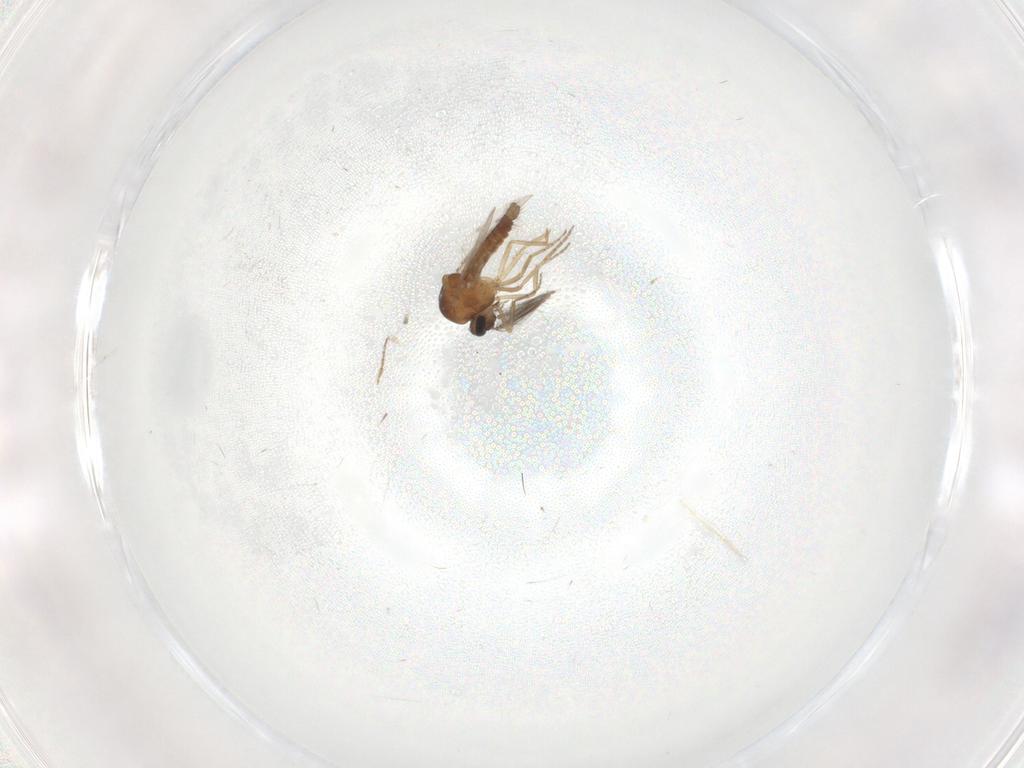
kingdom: Animalia
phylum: Arthropoda
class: Insecta
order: Diptera
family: Ceratopogonidae
